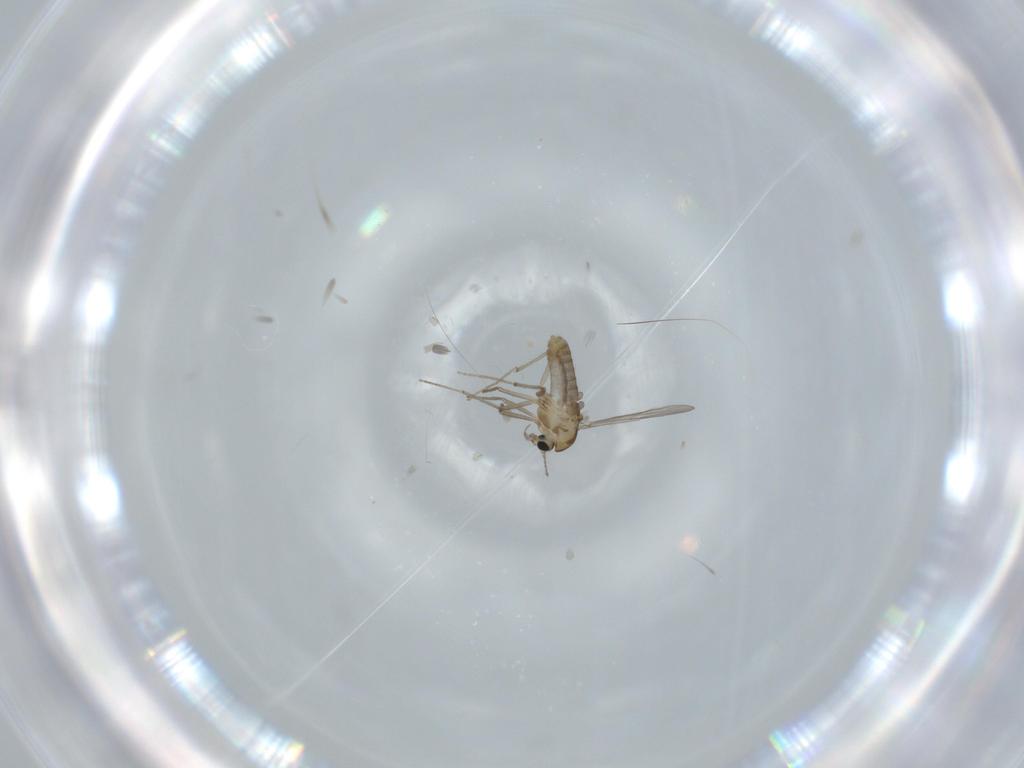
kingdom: Animalia
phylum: Arthropoda
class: Insecta
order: Diptera
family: Chironomidae
